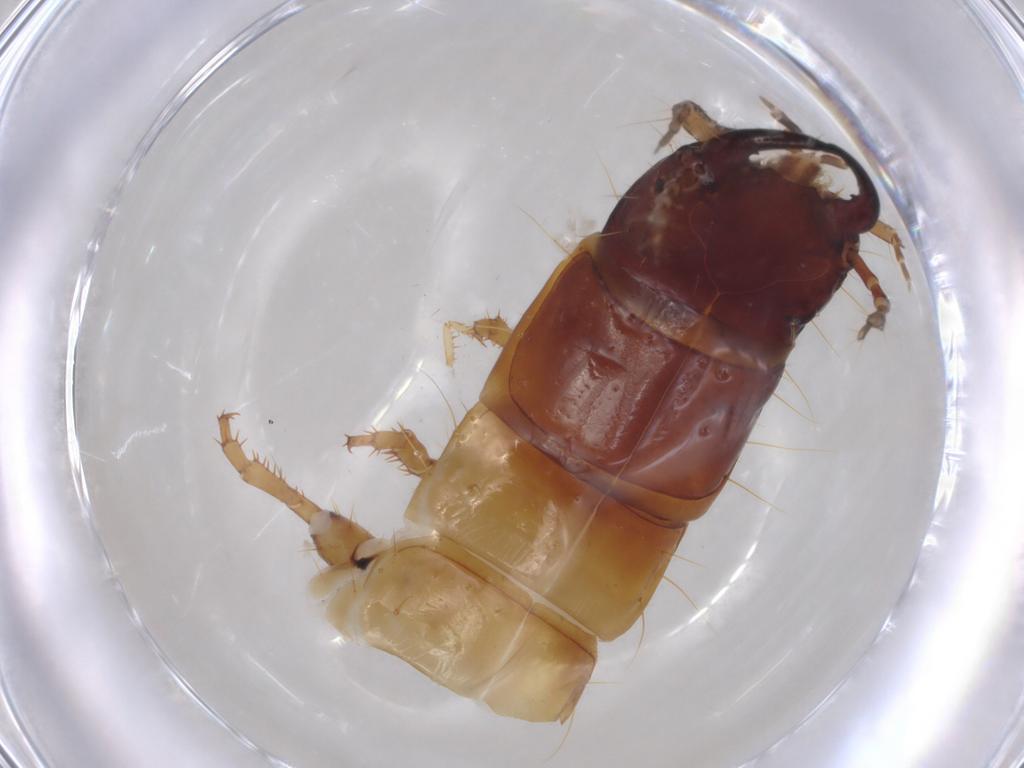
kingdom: Animalia
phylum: Arthropoda
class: Insecta
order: Coleoptera
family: Carabidae
